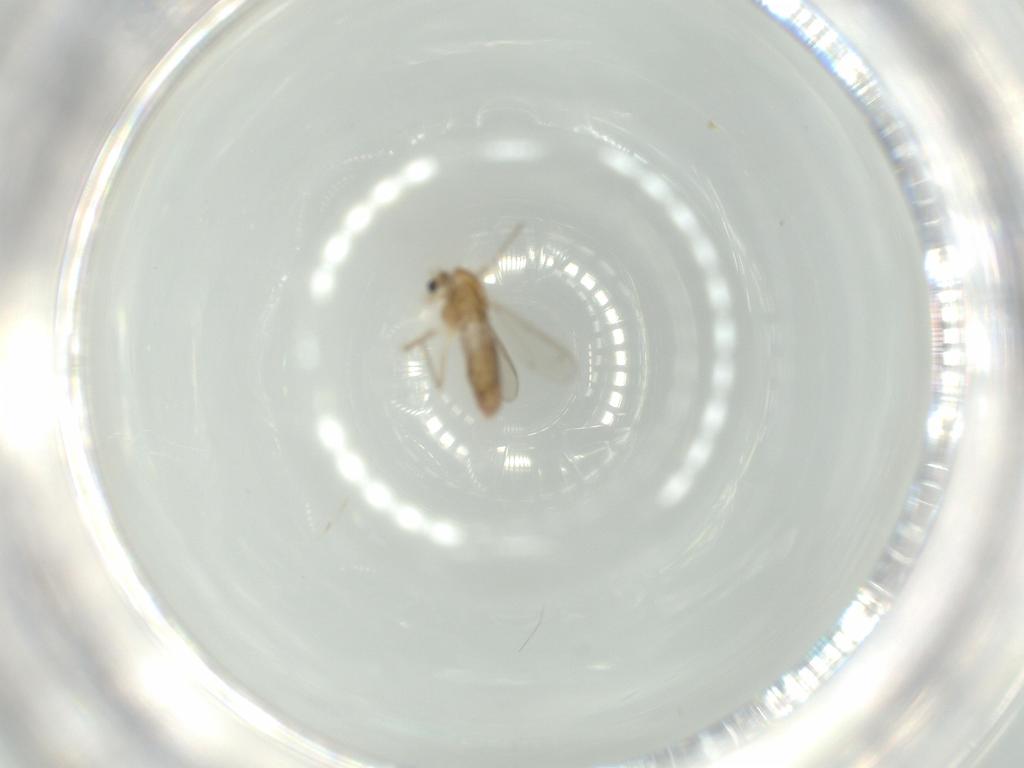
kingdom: Animalia
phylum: Arthropoda
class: Insecta
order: Diptera
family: Chironomidae
